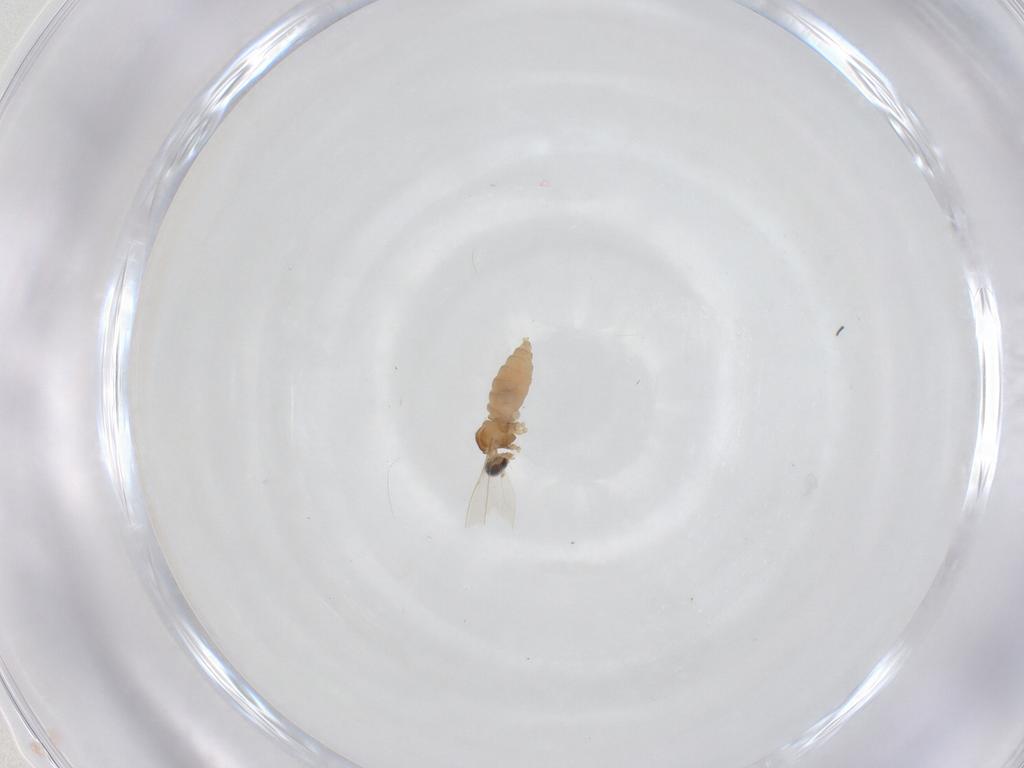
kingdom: Animalia
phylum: Arthropoda
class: Insecta
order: Diptera
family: Cecidomyiidae
